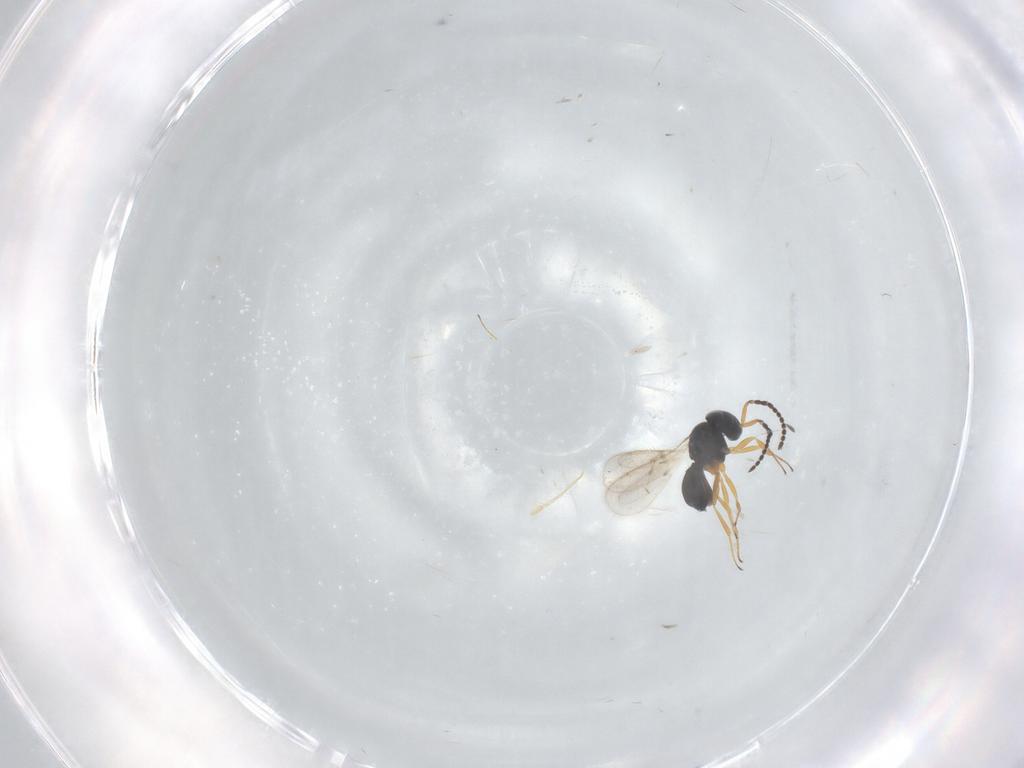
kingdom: Animalia
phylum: Arthropoda
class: Insecta
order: Hymenoptera
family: Scelionidae
